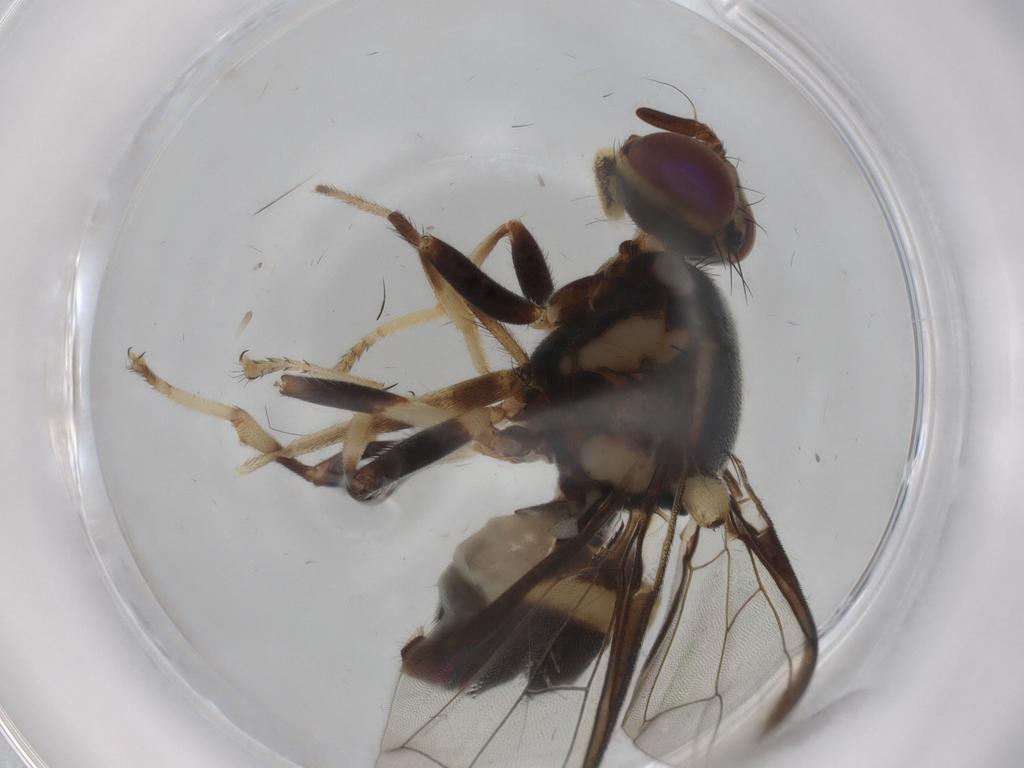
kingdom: Animalia
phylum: Arthropoda
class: Insecta
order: Diptera
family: Tephritidae
